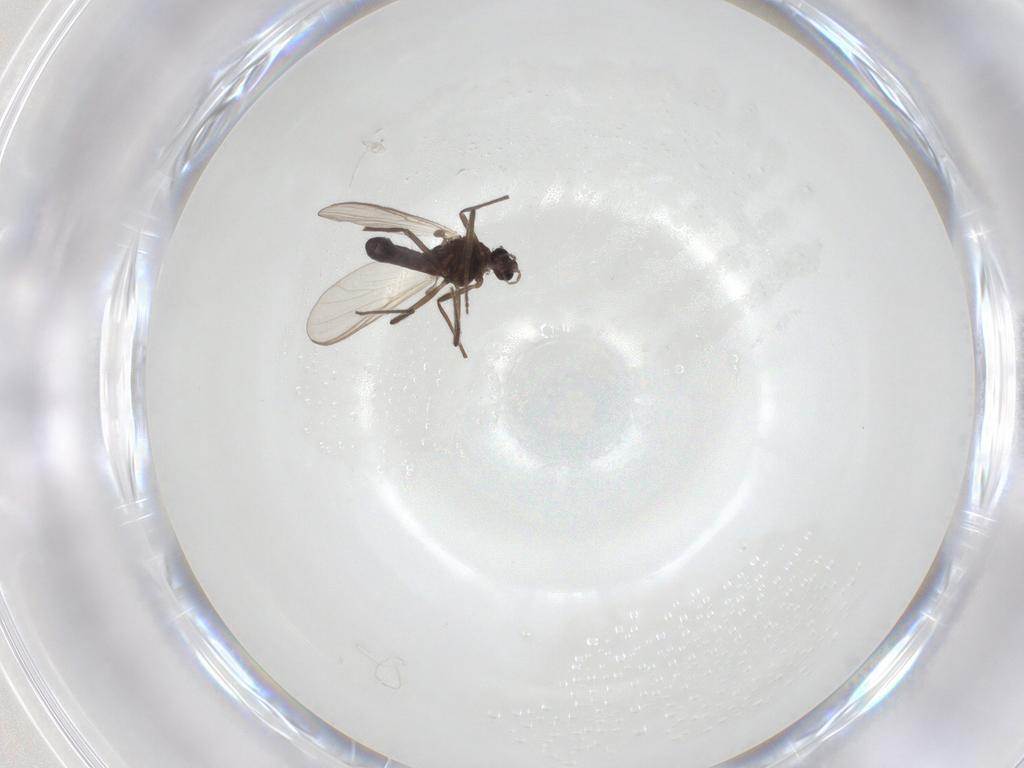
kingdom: Animalia
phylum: Arthropoda
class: Insecta
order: Diptera
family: Chironomidae
